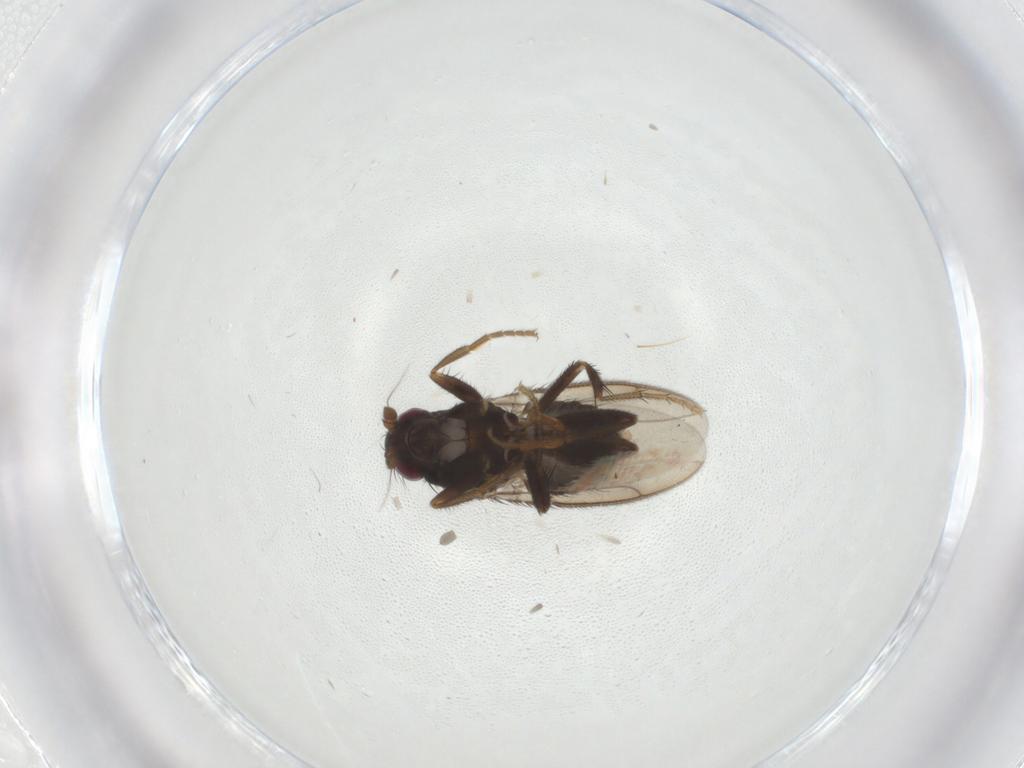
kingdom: Animalia
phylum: Arthropoda
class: Insecta
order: Diptera
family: Sphaeroceridae
